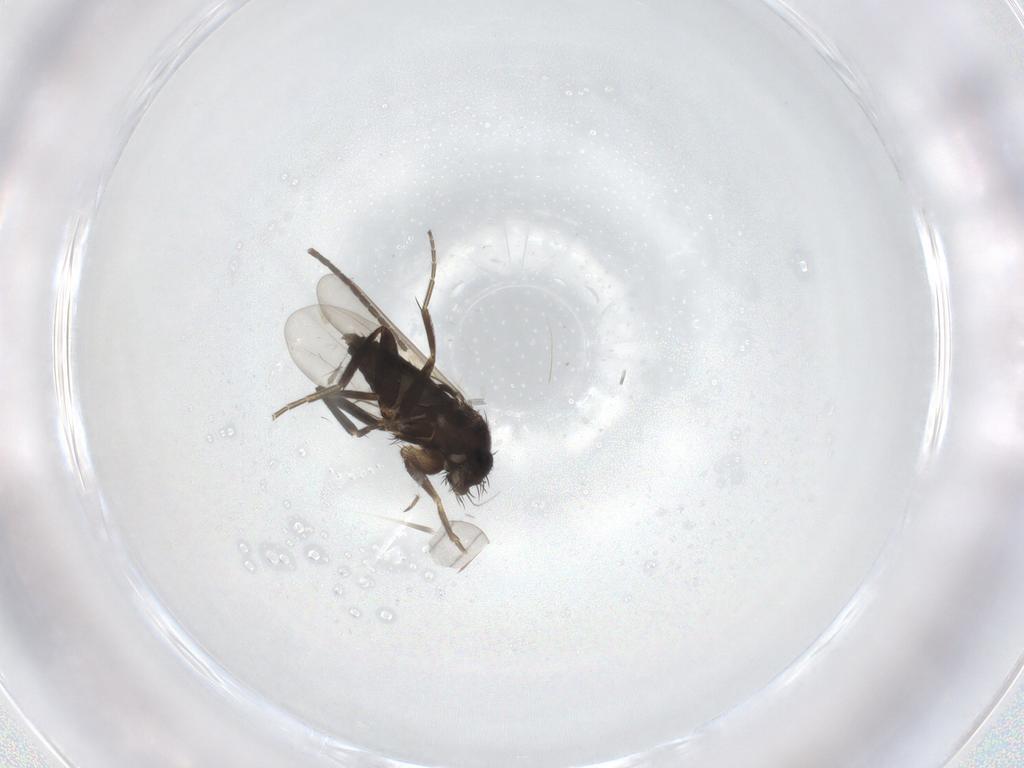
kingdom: Animalia
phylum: Arthropoda
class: Insecta
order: Diptera
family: Phoridae
